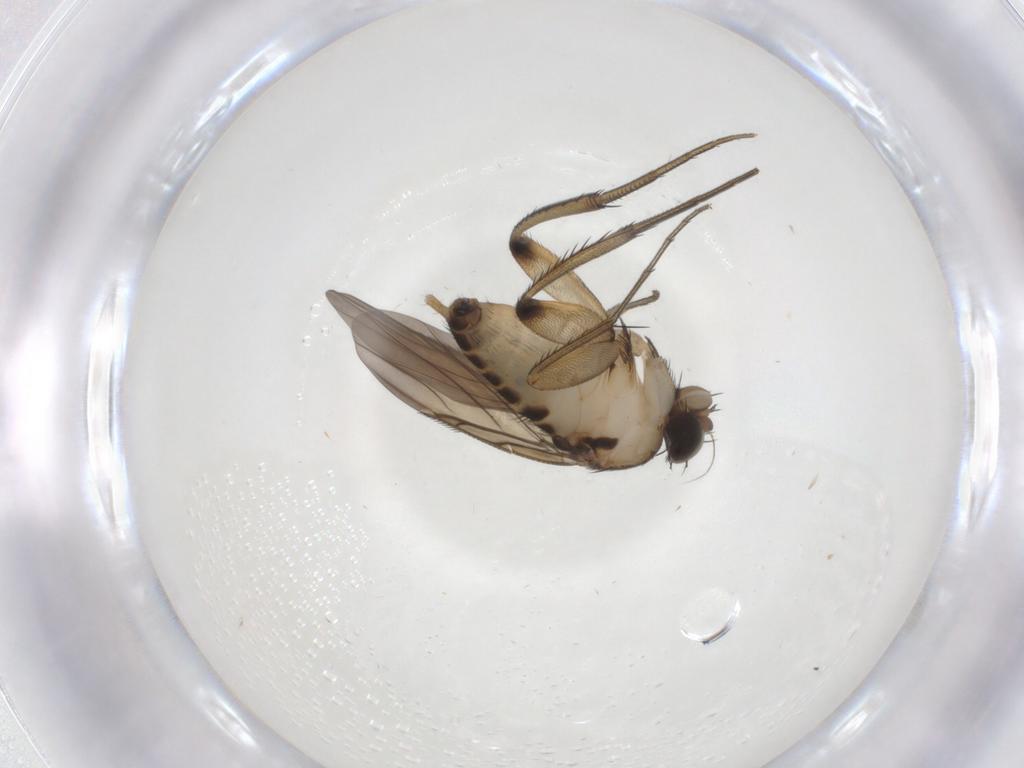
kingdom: Animalia
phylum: Arthropoda
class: Insecta
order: Diptera
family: Phoridae
